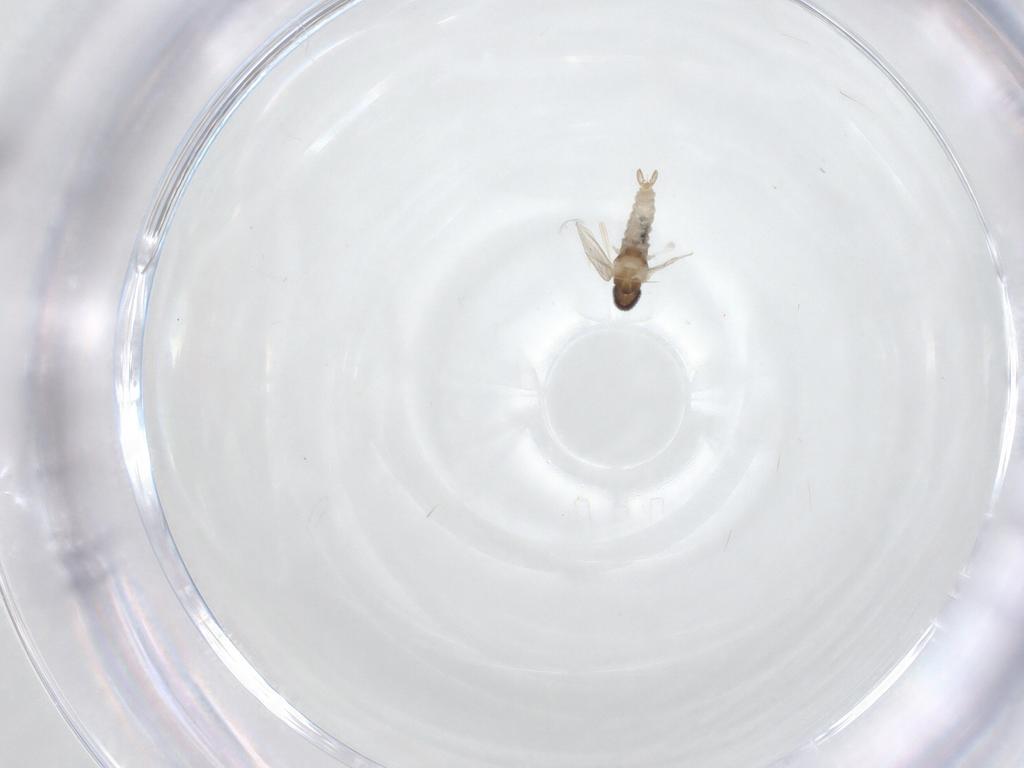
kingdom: Animalia
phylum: Arthropoda
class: Insecta
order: Diptera
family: Cecidomyiidae
